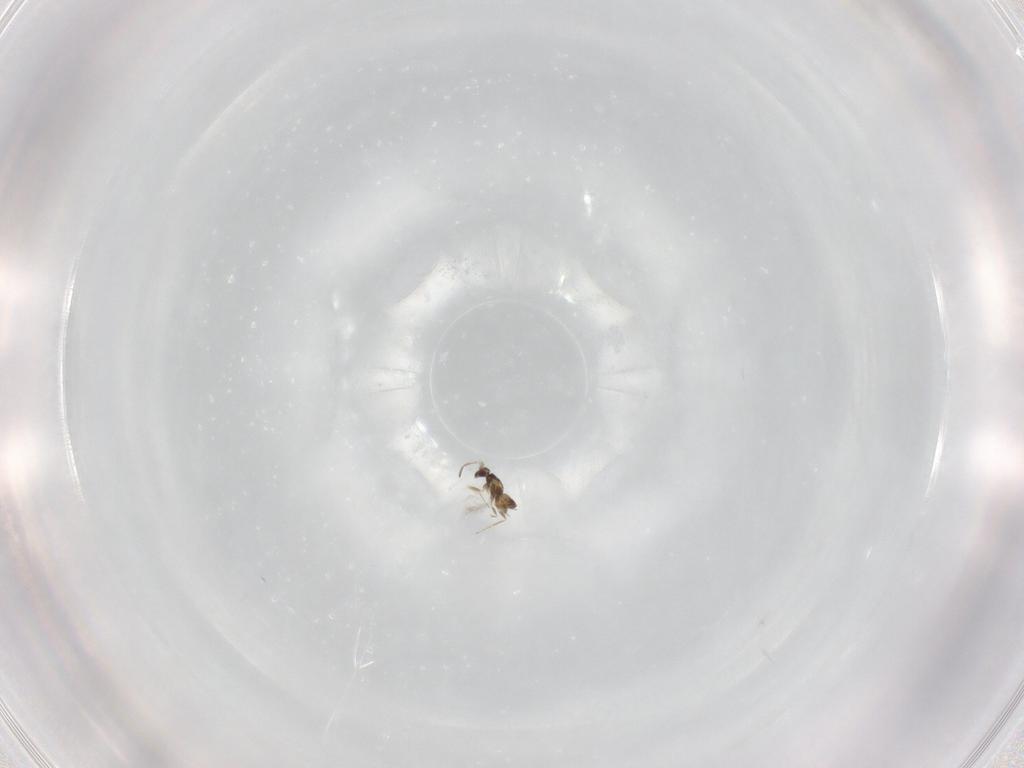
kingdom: Animalia
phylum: Arthropoda
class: Insecta
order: Hymenoptera
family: Mymaridae
